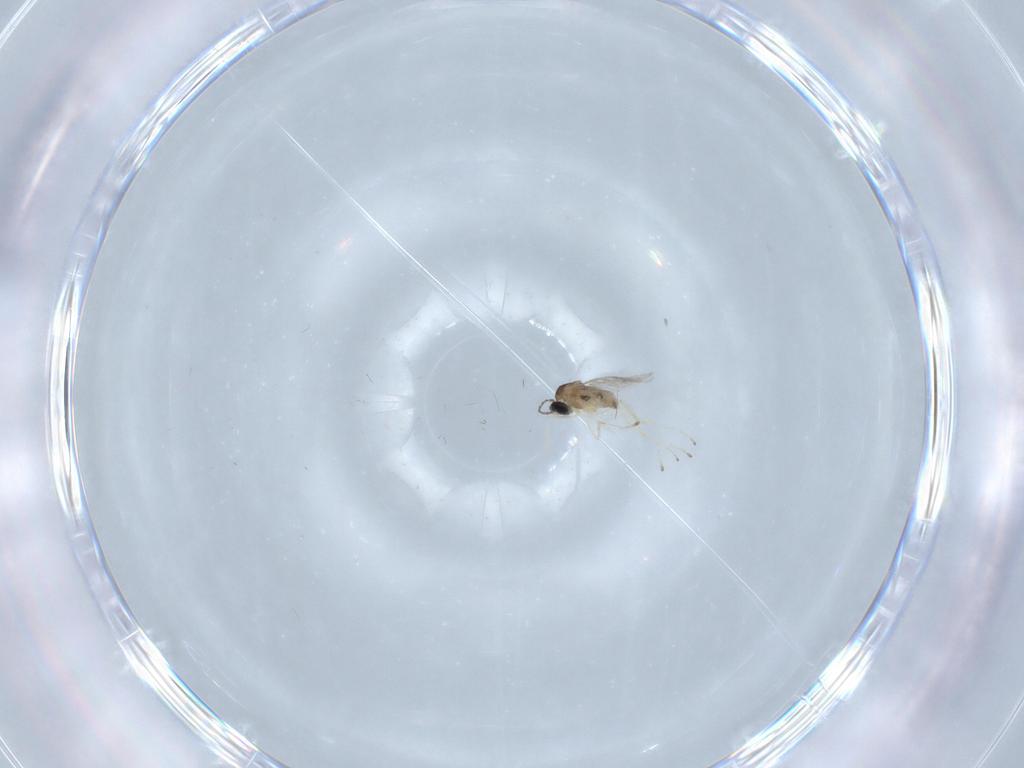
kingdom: Animalia
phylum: Arthropoda
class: Insecta
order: Diptera
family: Cecidomyiidae
